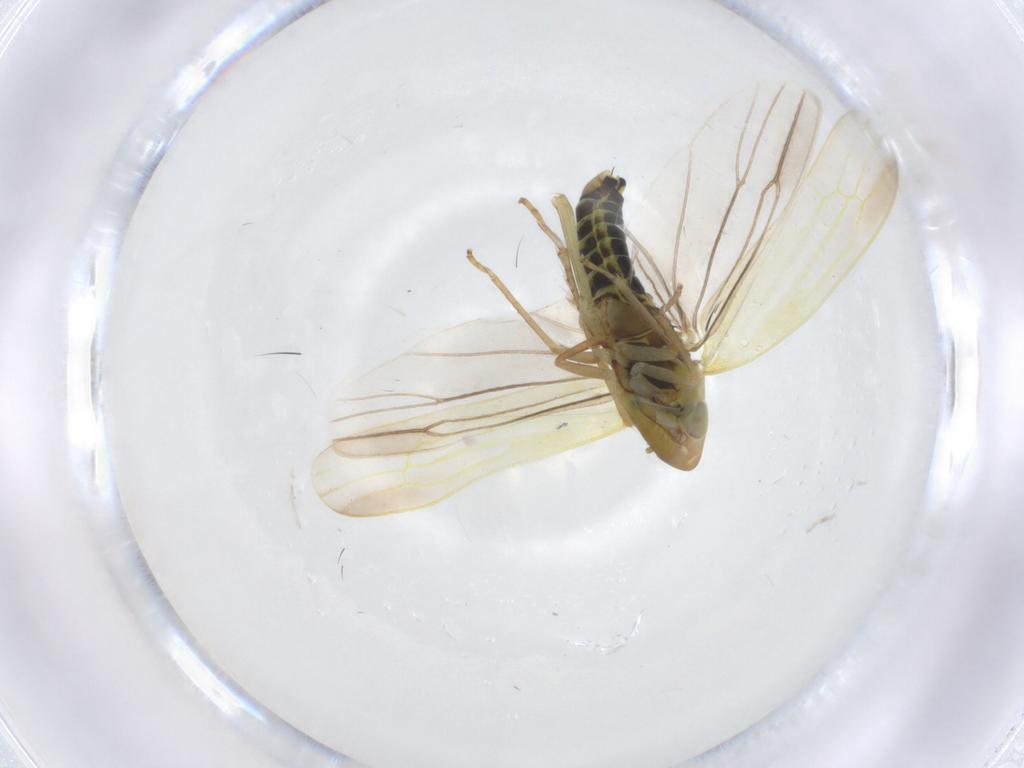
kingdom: Animalia
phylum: Arthropoda
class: Insecta
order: Hemiptera
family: Cicadellidae
